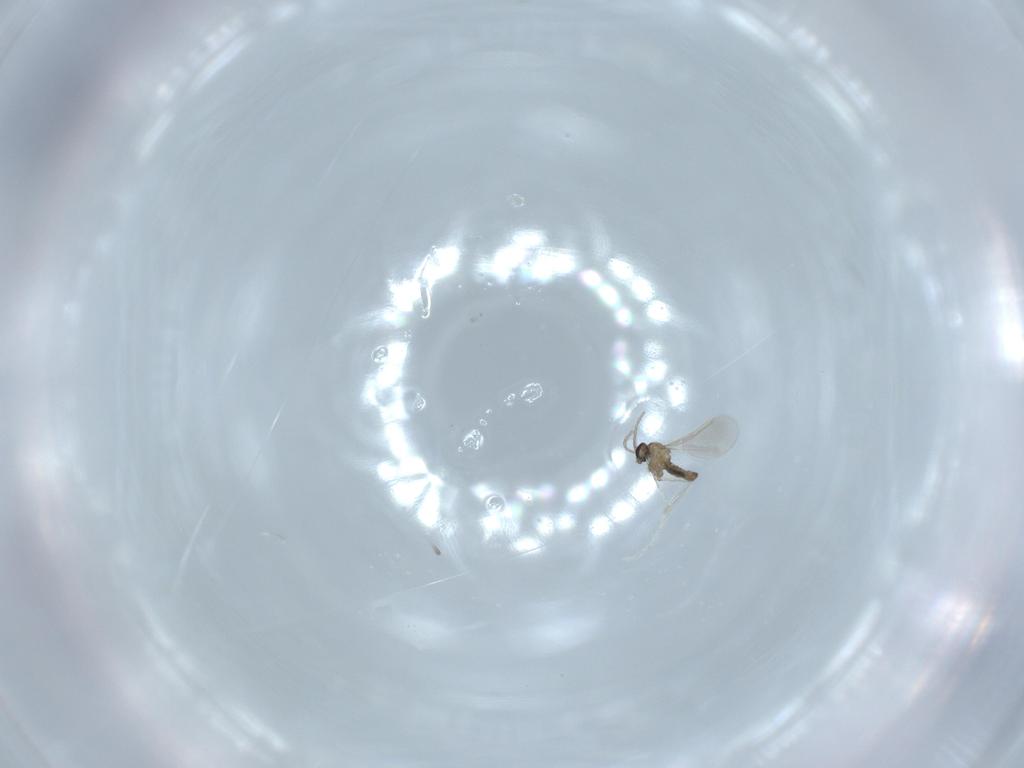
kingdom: Animalia
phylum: Arthropoda
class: Insecta
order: Diptera
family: Cecidomyiidae
